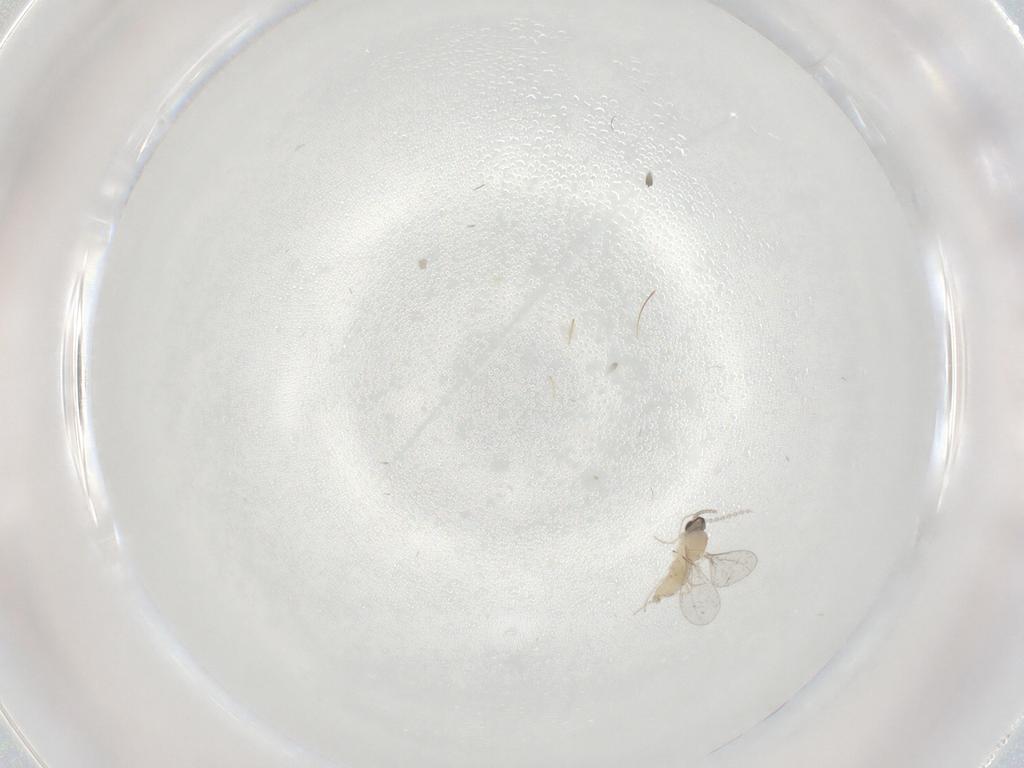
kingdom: Animalia
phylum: Arthropoda
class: Insecta
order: Diptera
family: Cecidomyiidae
